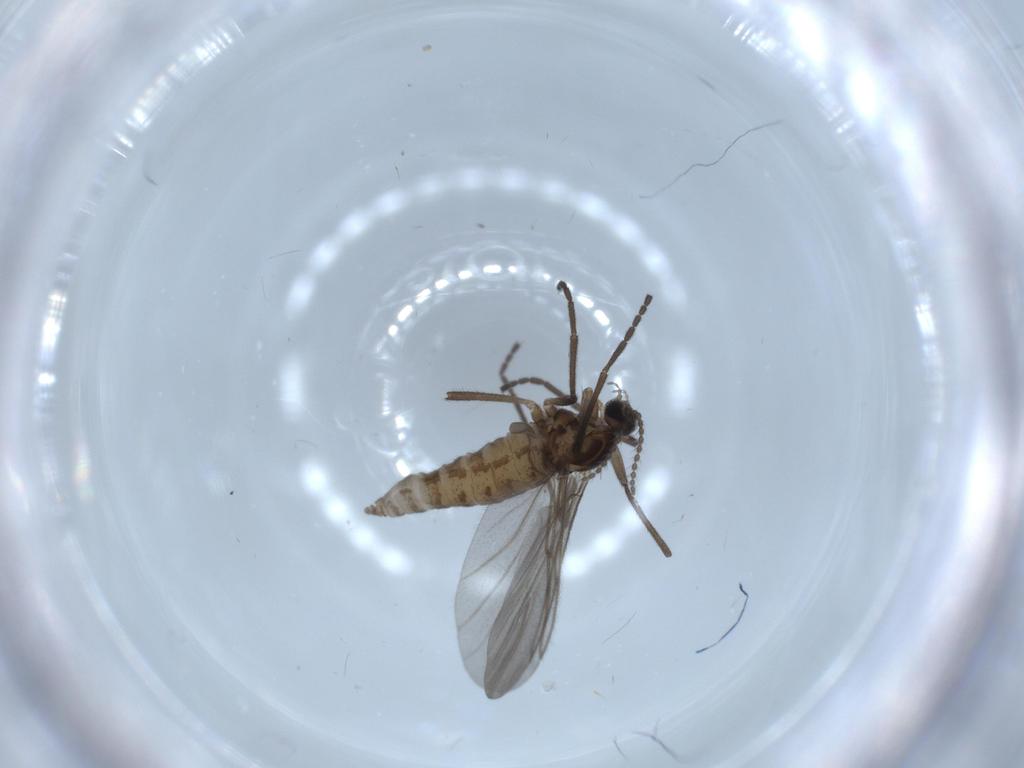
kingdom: Animalia
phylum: Arthropoda
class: Insecta
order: Diptera
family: Cecidomyiidae
